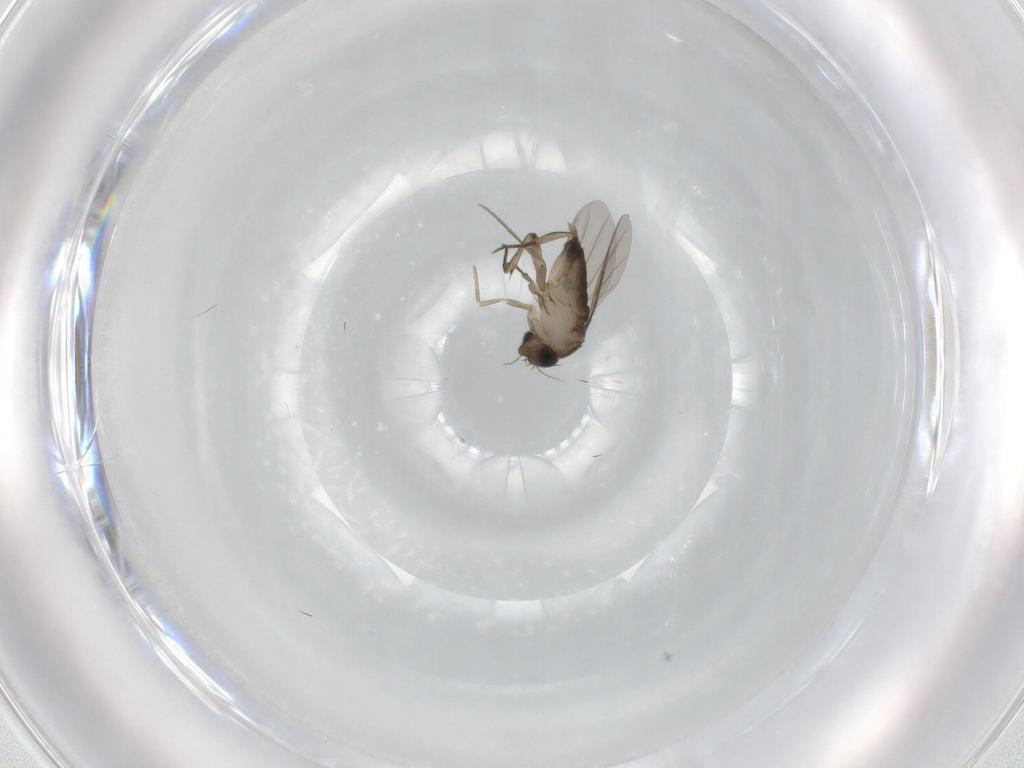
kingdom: Animalia
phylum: Arthropoda
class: Insecta
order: Diptera
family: Phoridae
